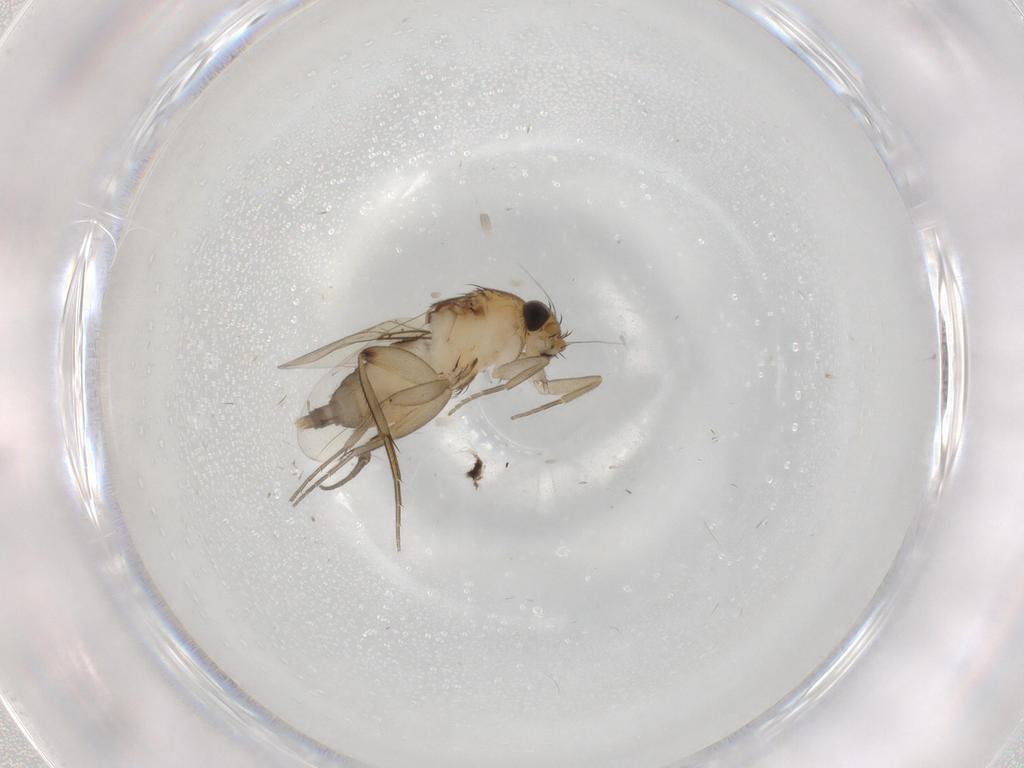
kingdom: Animalia
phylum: Arthropoda
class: Insecta
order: Diptera
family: Phoridae
